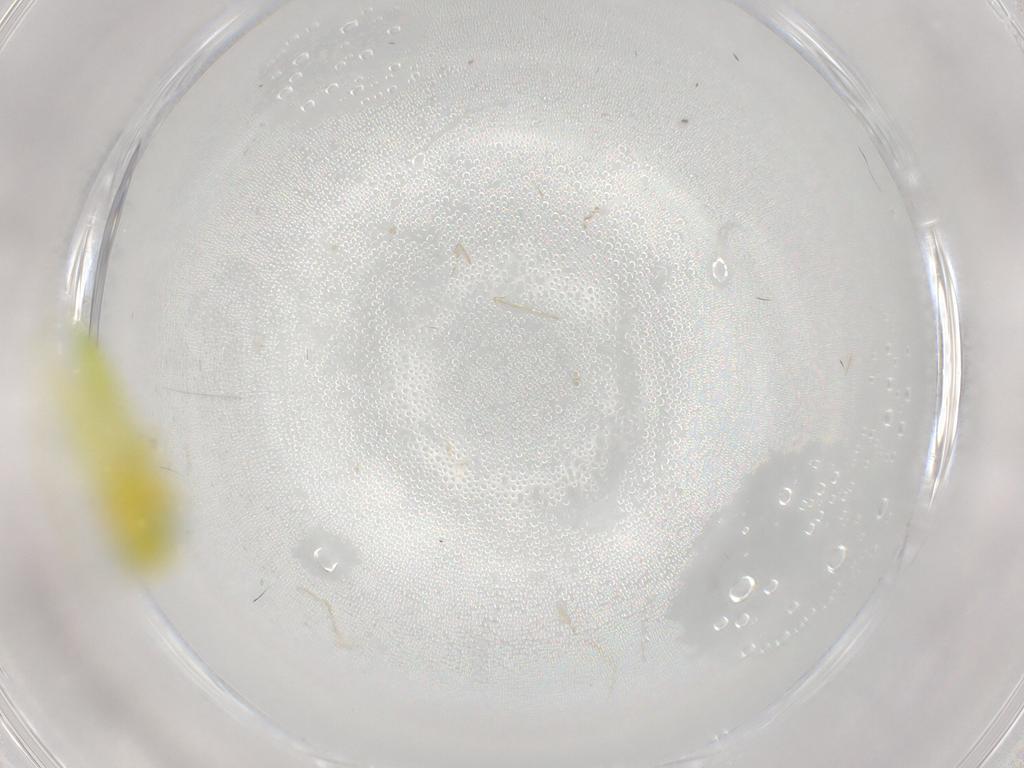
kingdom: Animalia
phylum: Arthropoda
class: Insecta
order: Hemiptera
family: Cicadellidae
